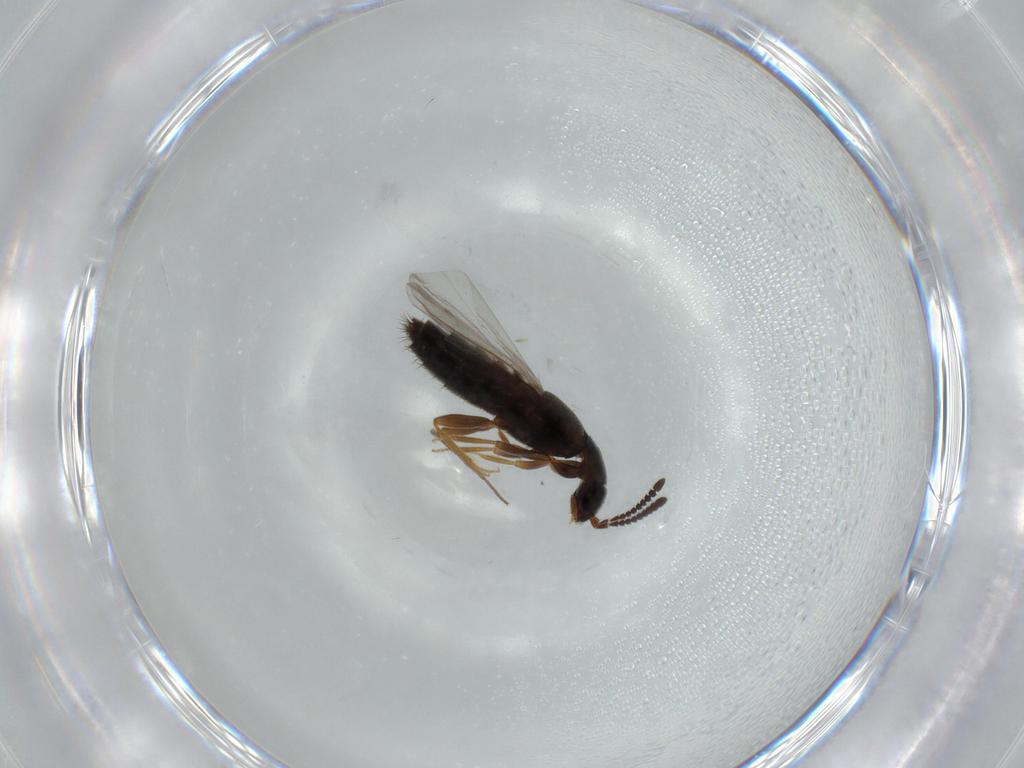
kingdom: Animalia
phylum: Arthropoda
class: Insecta
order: Coleoptera
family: Staphylinidae
